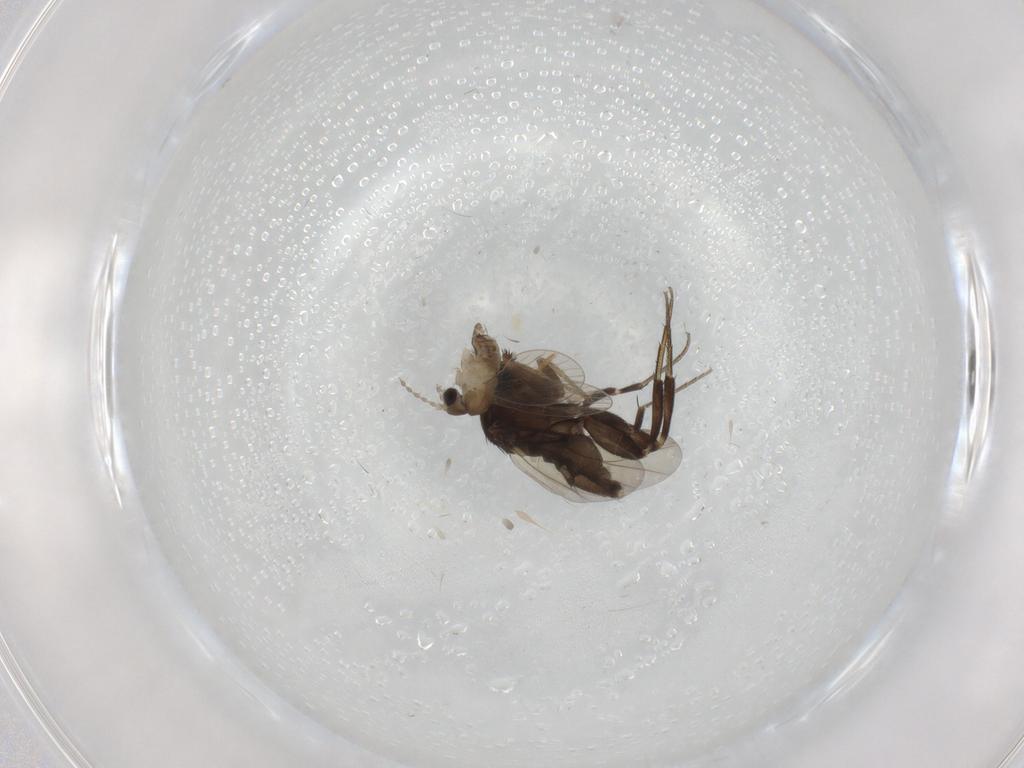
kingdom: Animalia
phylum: Arthropoda
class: Insecta
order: Diptera
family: Phoridae
